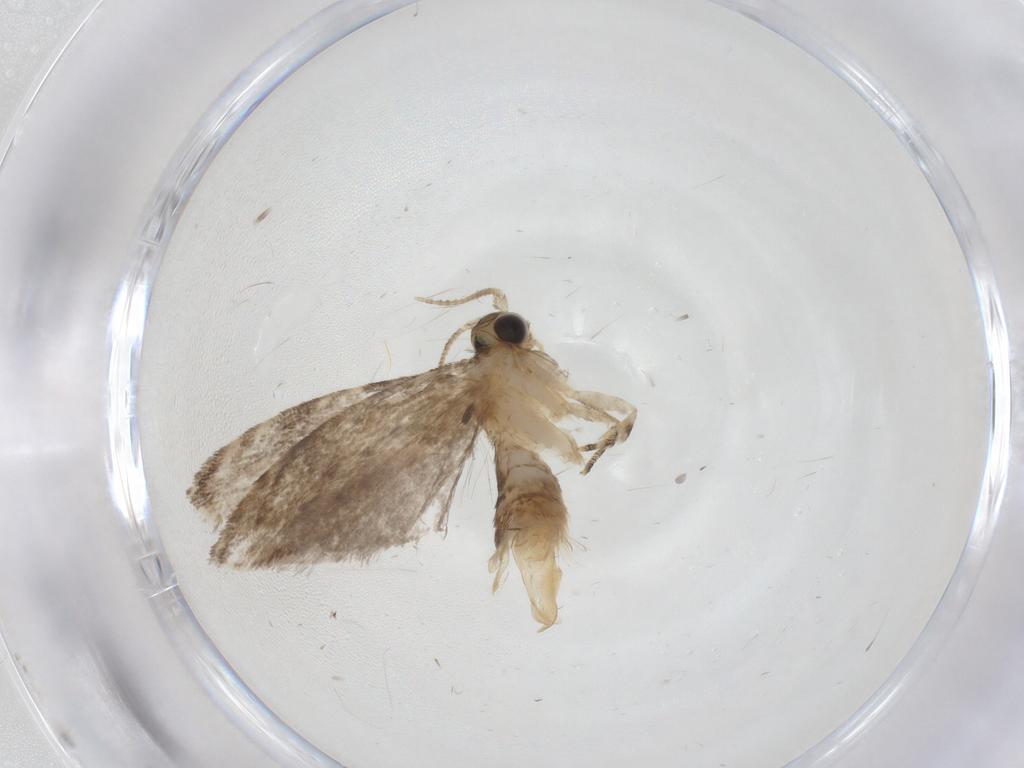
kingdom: Animalia
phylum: Arthropoda
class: Insecta
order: Lepidoptera
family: Tineidae
